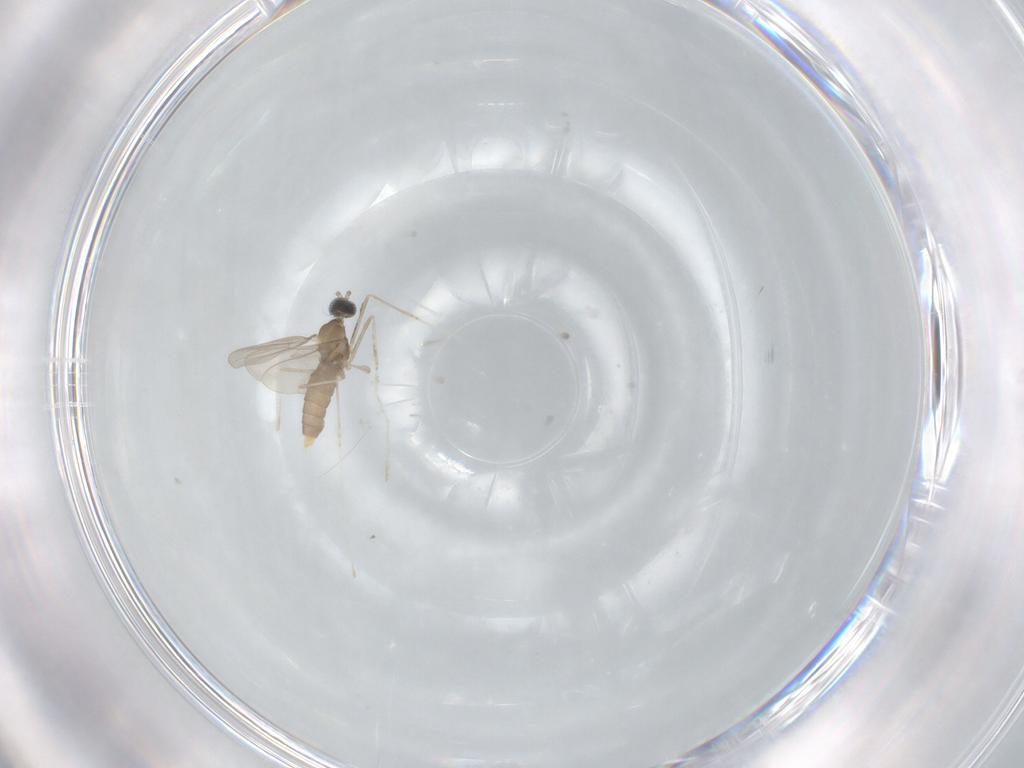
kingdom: Animalia
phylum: Arthropoda
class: Insecta
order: Diptera
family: Cecidomyiidae
